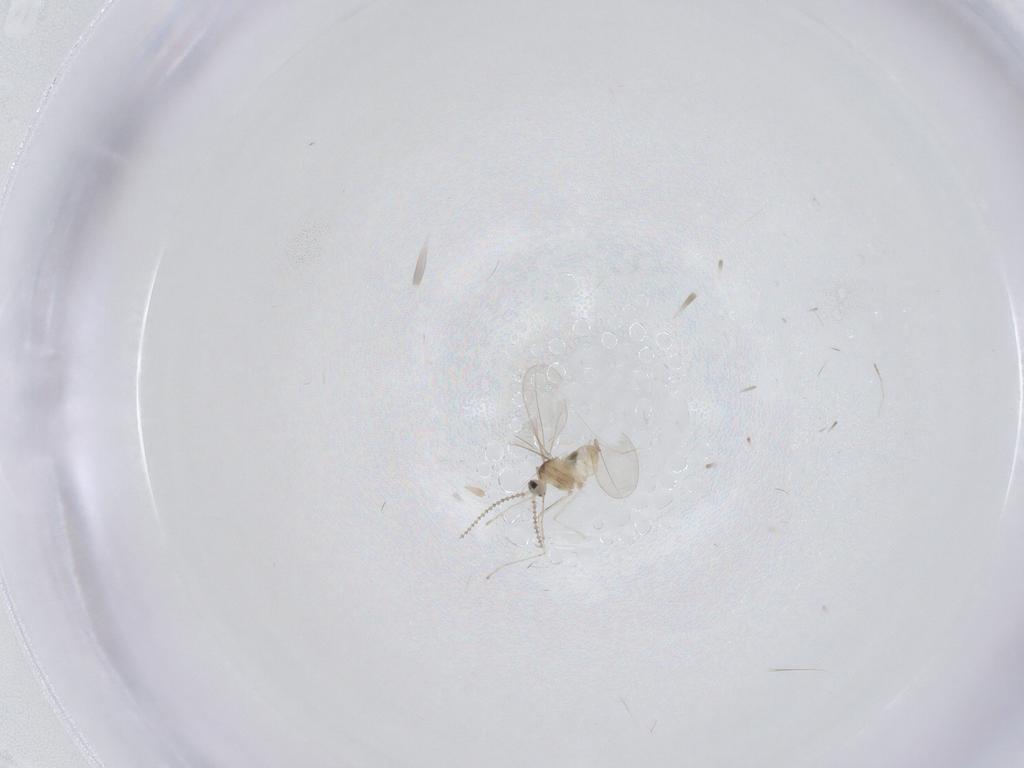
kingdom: Animalia
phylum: Arthropoda
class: Insecta
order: Diptera
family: Cecidomyiidae
